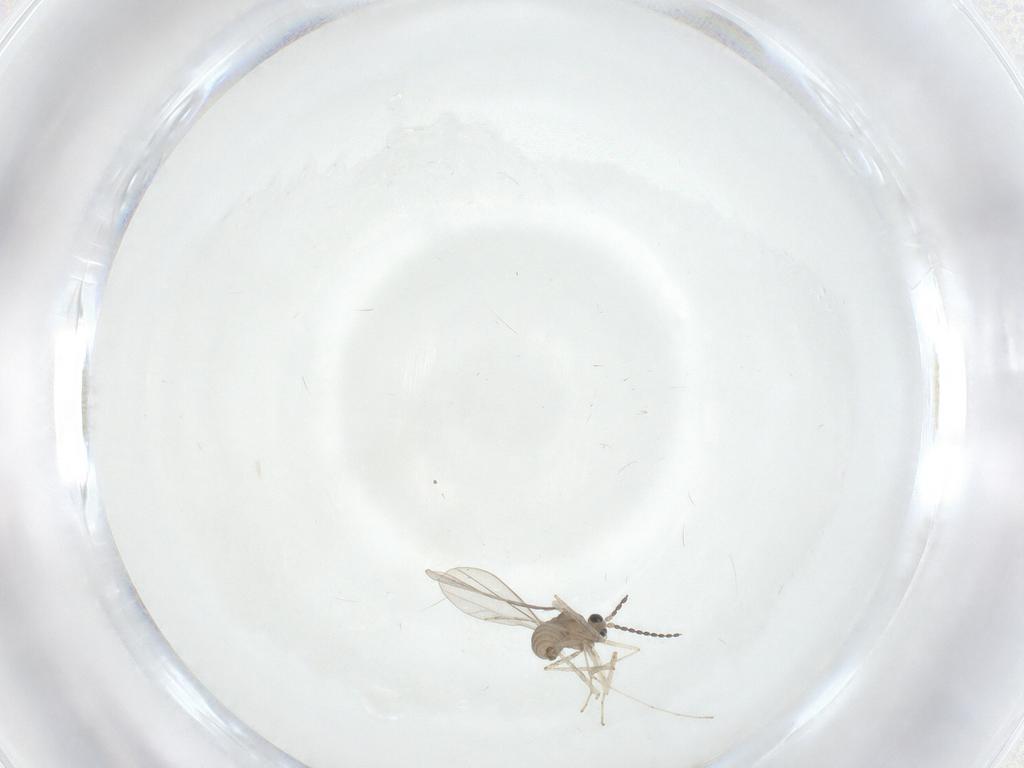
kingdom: Animalia
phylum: Arthropoda
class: Insecta
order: Diptera
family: Cecidomyiidae
